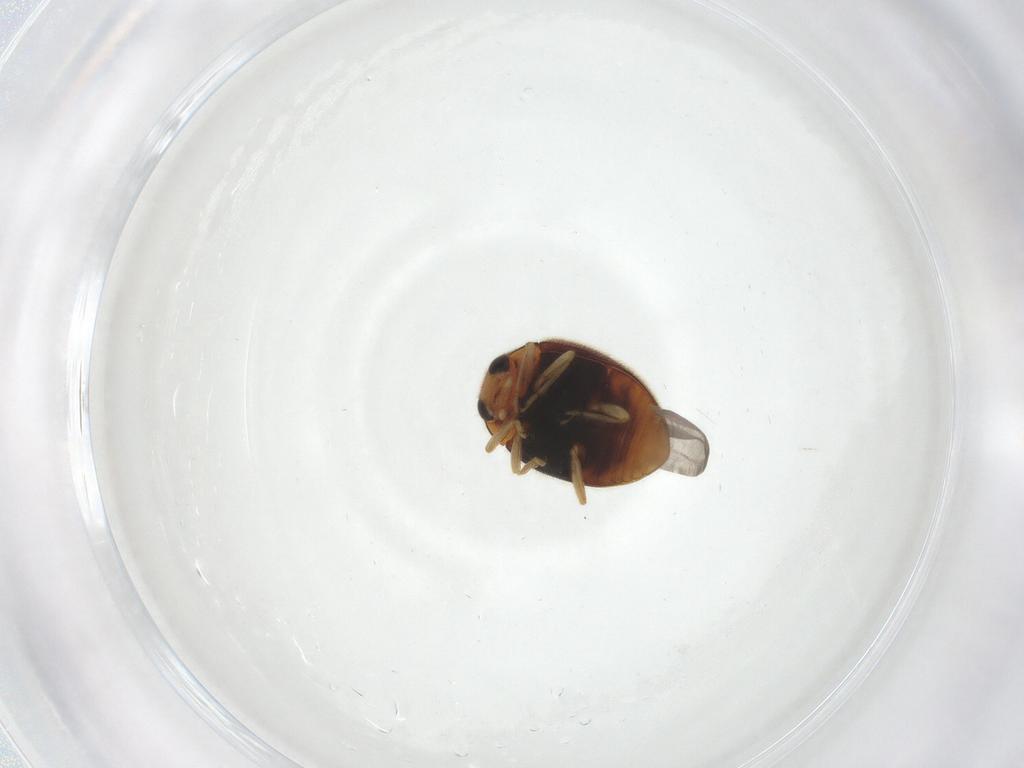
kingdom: Animalia
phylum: Arthropoda
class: Insecta
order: Coleoptera
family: Coccinellidae
